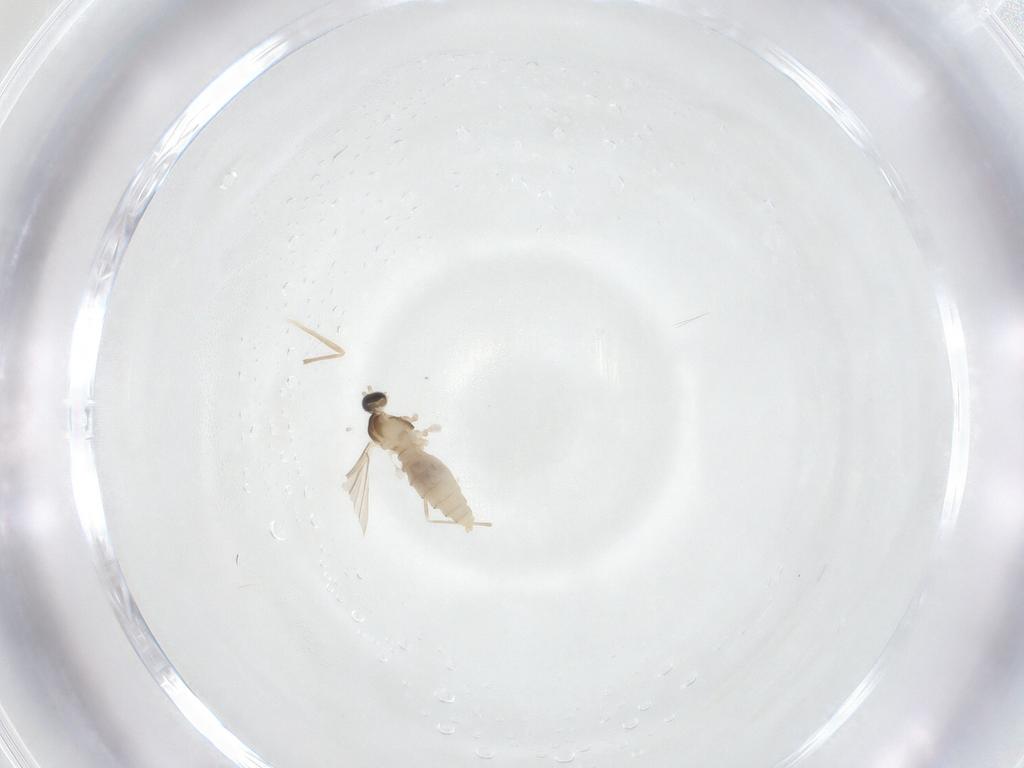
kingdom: Animalia
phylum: Arthropoda
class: Insecta
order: Diptera
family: Cecidomyiidae
